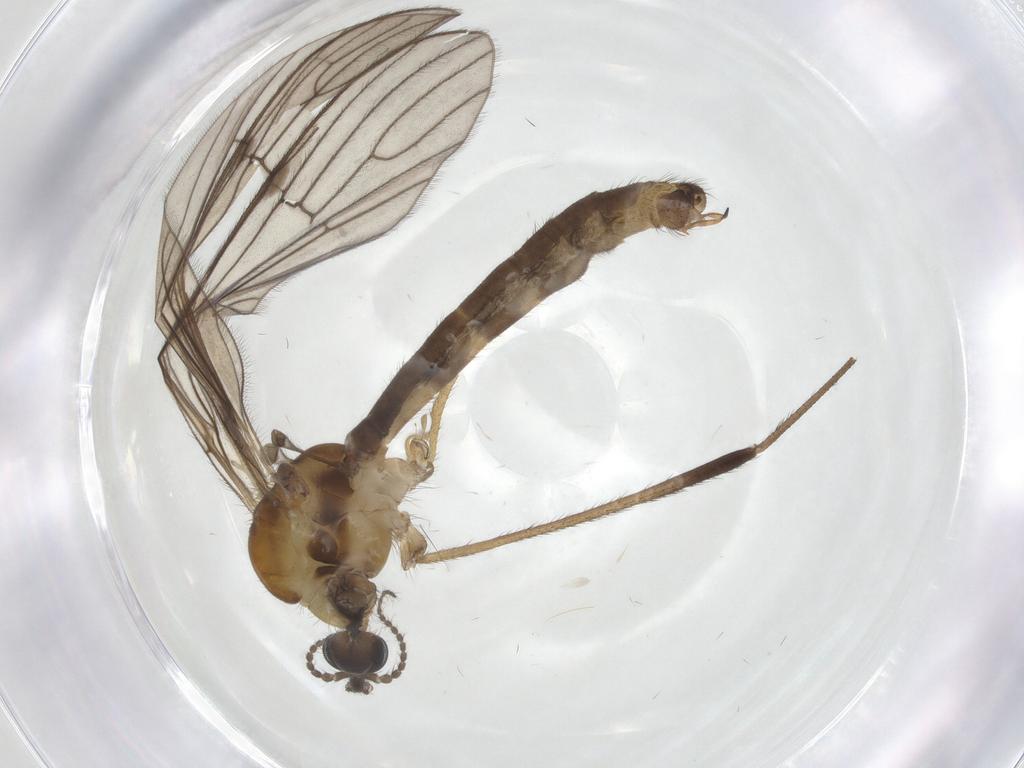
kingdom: Animalia
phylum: Arthropoda
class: Insecta
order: Diptera
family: Limoniidae
